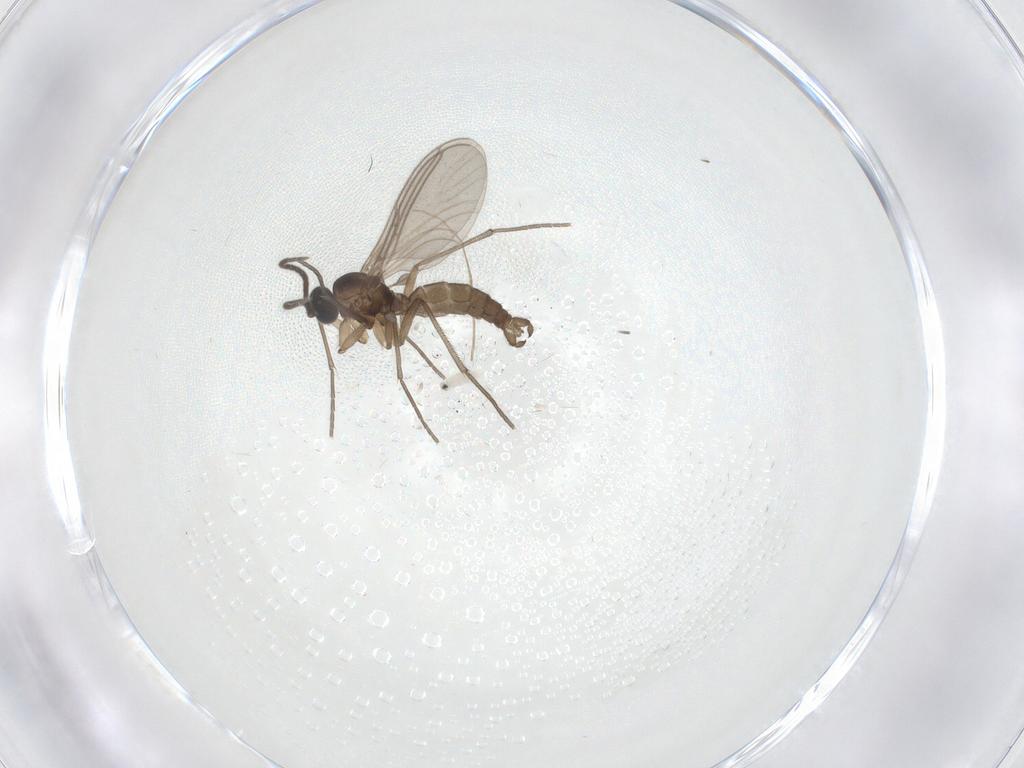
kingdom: Animalia
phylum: Arthropoda
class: Insecta
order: Diptera
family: Sciaridae
